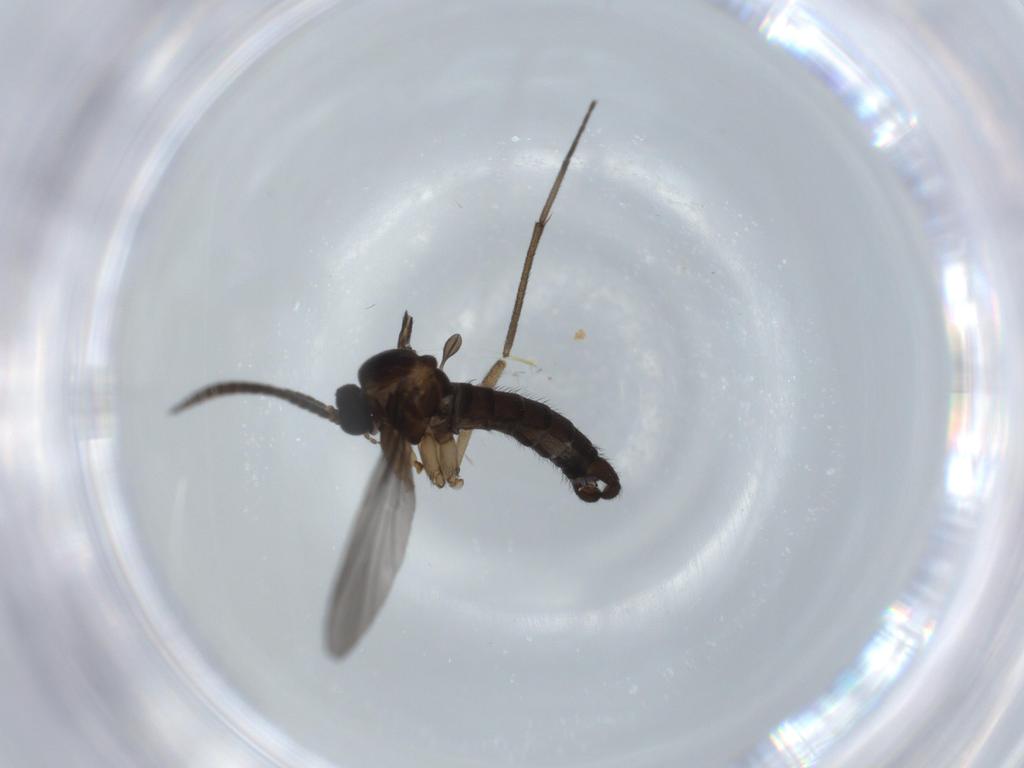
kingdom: Animalia
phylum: Arthropoda
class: Insecta
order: Diptera
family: Sciaridae
